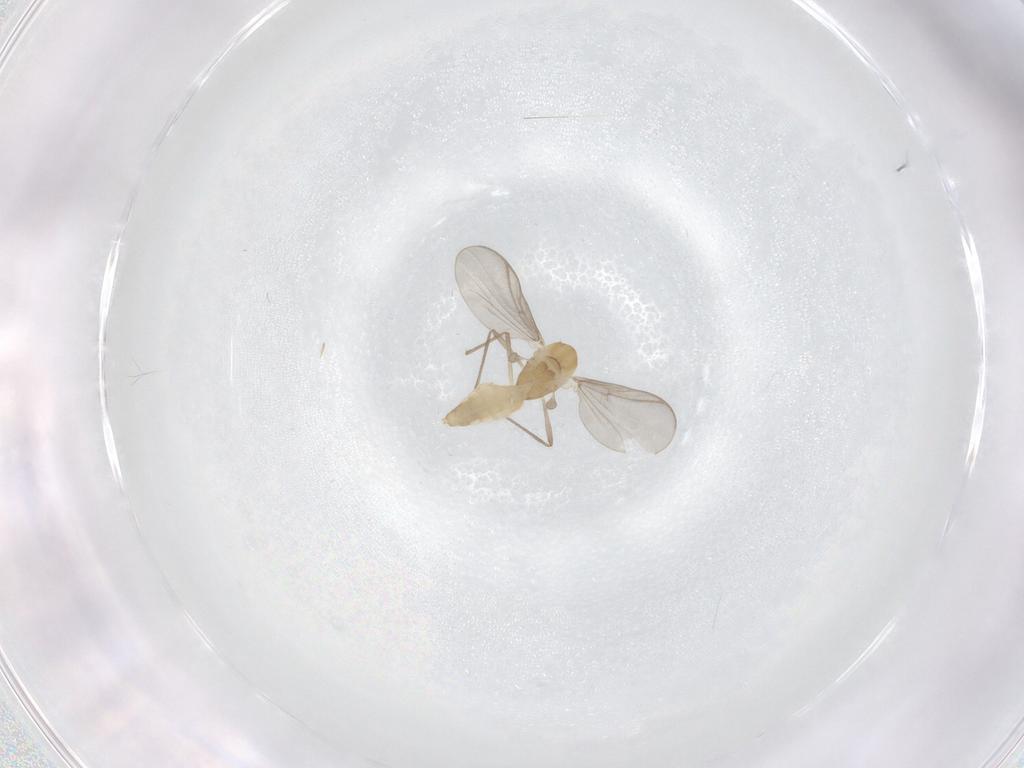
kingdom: Animalia
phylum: Arthropoda
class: Insecta
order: Diptera
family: Chironomidae
